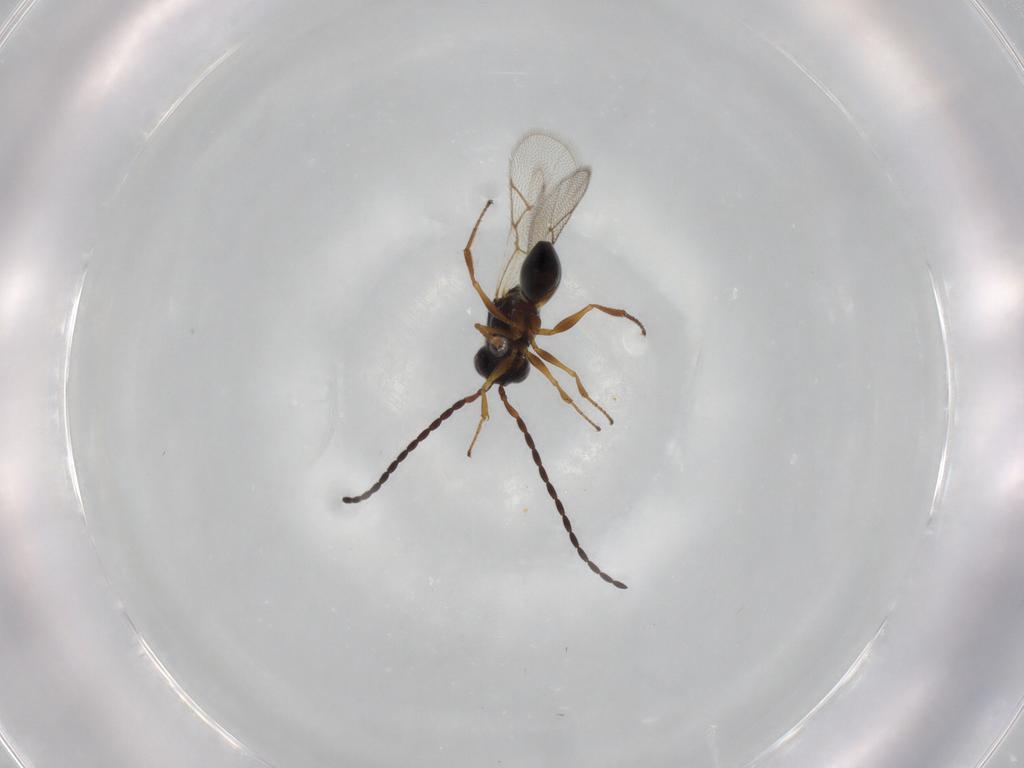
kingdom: Animalia
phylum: Arthropoda
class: Insecta
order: Hymenoptera
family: Figitidae
